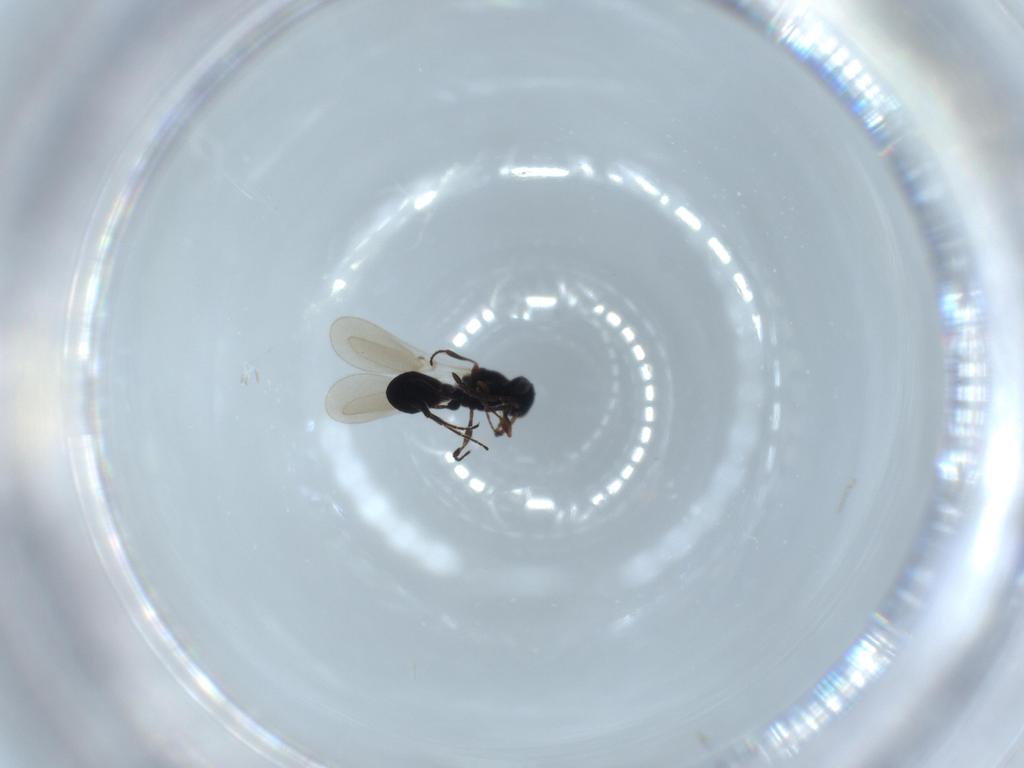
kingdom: Animalia
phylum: Arthropoda
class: Insecta
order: Hymenoptera
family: Platygastridae
